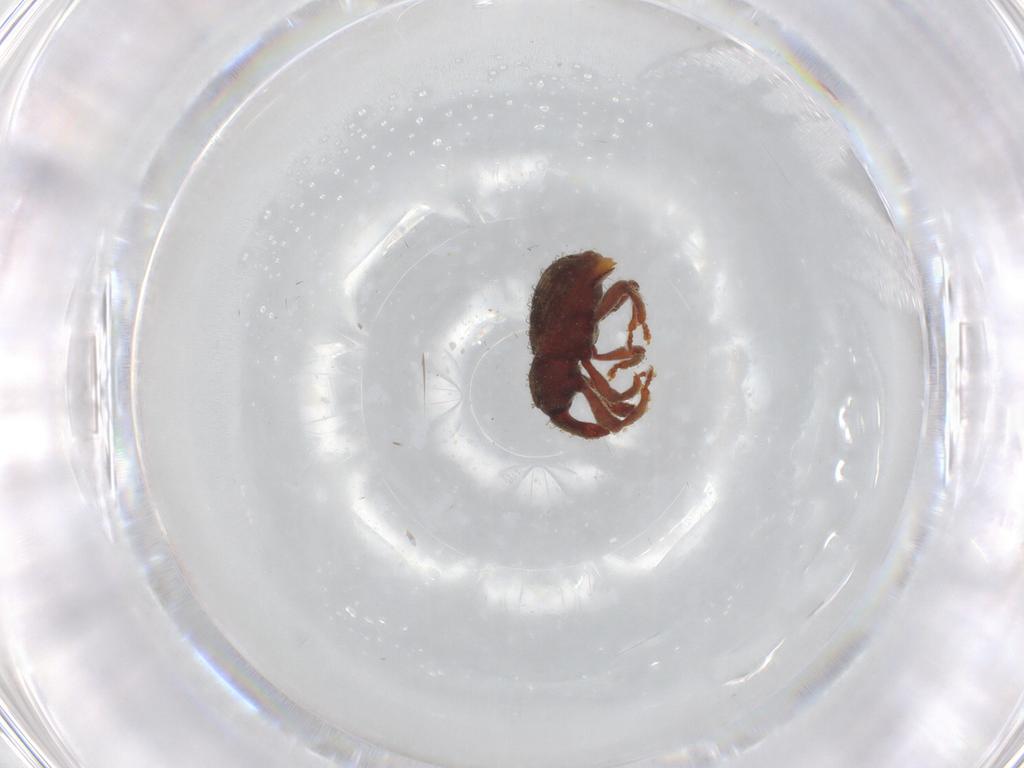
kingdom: Animalia
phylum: Arthropoda
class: Insecta
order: Coleoptera
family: Curculionidae
